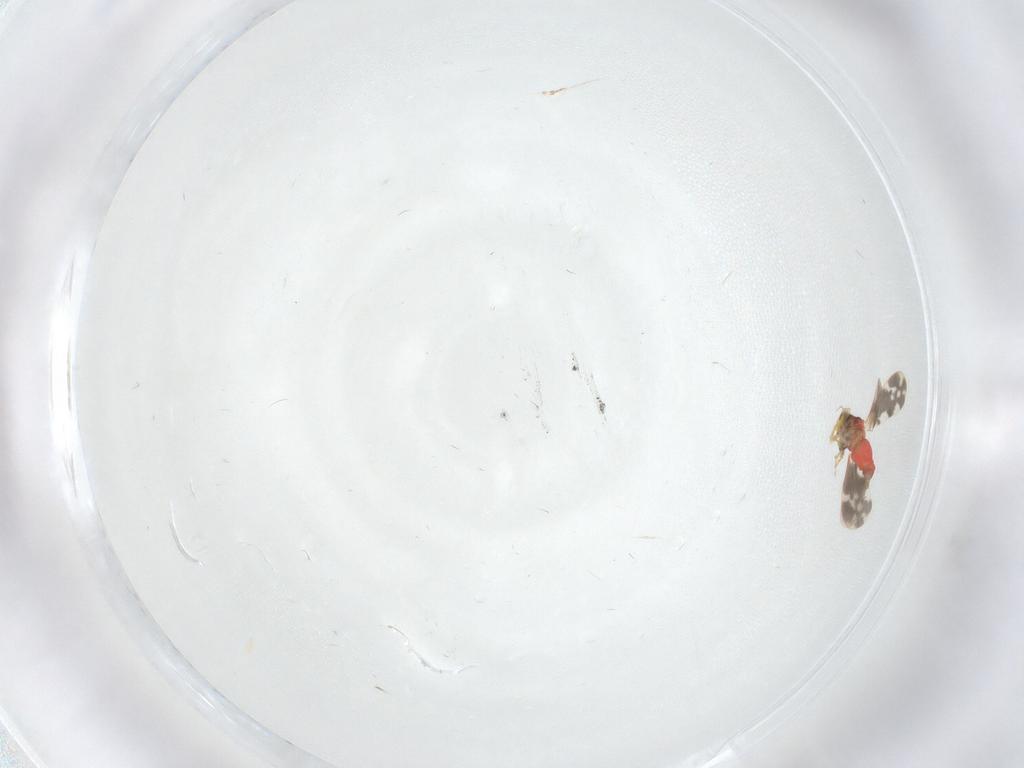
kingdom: Animalia
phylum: Arthropoda
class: Insecta
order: Hemiptera
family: Aleyrodidae
